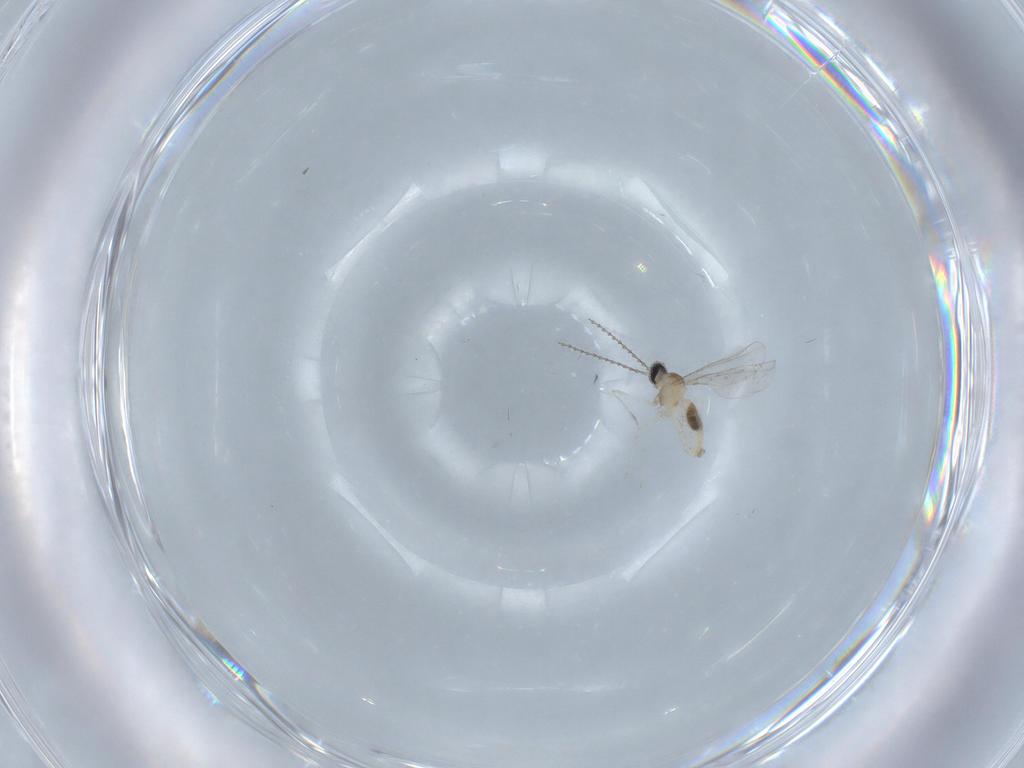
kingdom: Animalia
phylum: Arthropoda
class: Insecta
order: Diptera
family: Cecidomyiidae
